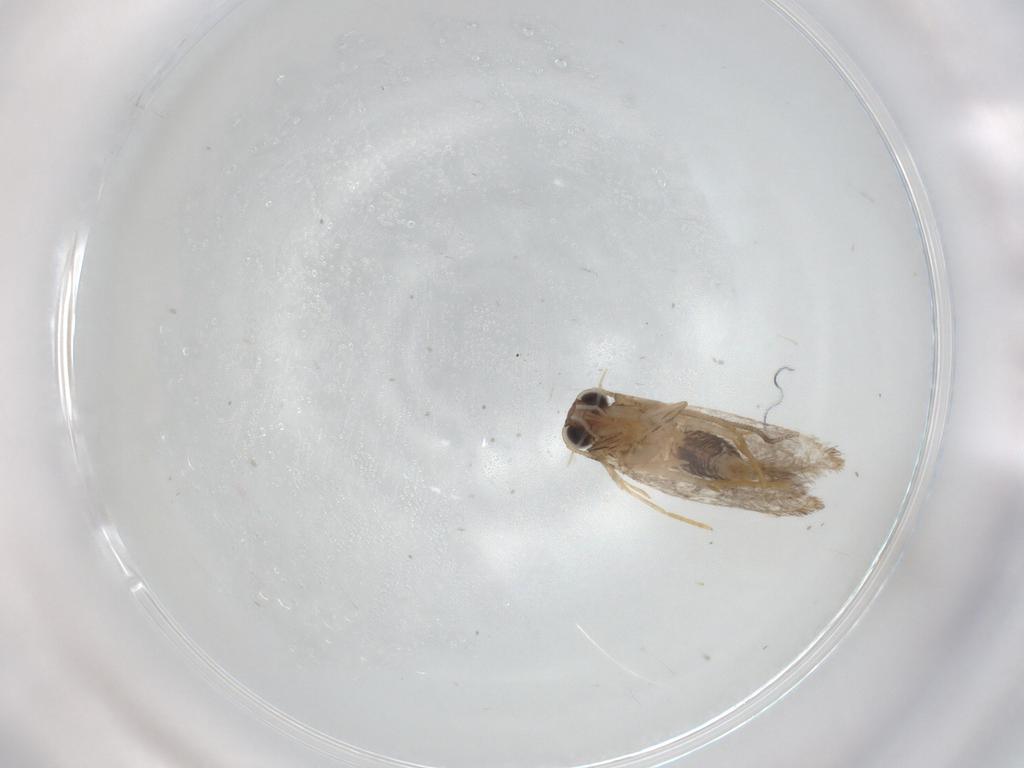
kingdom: Animalia
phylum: Arthropoda
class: Insecta
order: Lepidoptera
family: Tineidae
